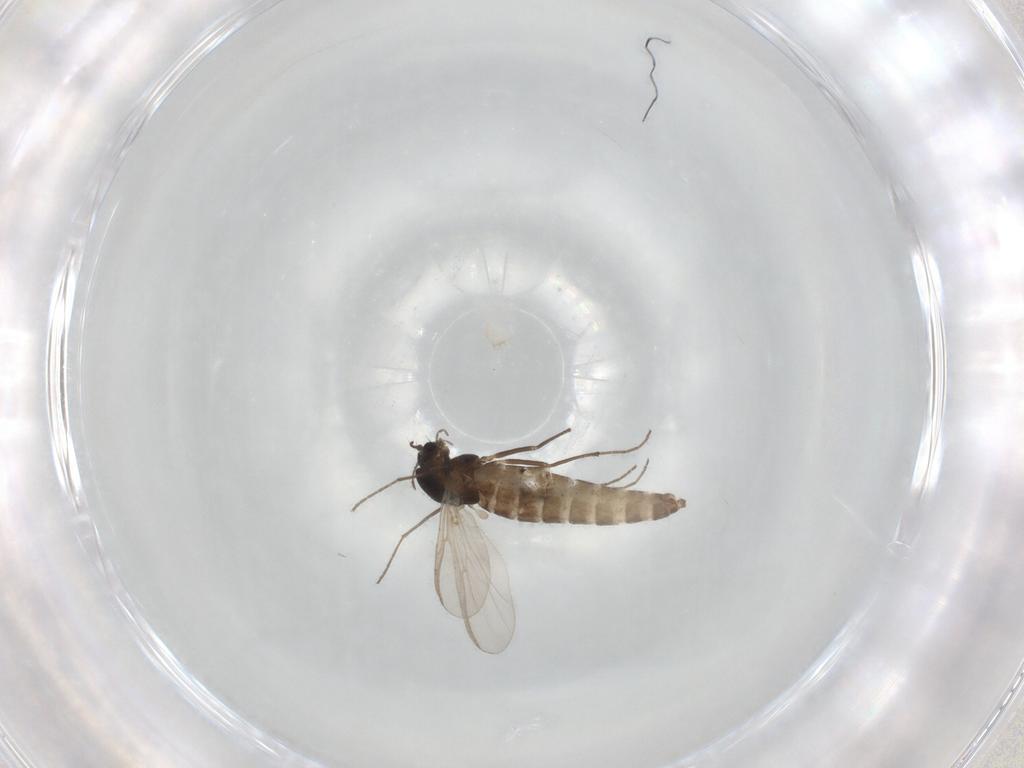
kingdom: Animalia
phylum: Arthropoda
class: Insecta
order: Diptera
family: Chironomidae
